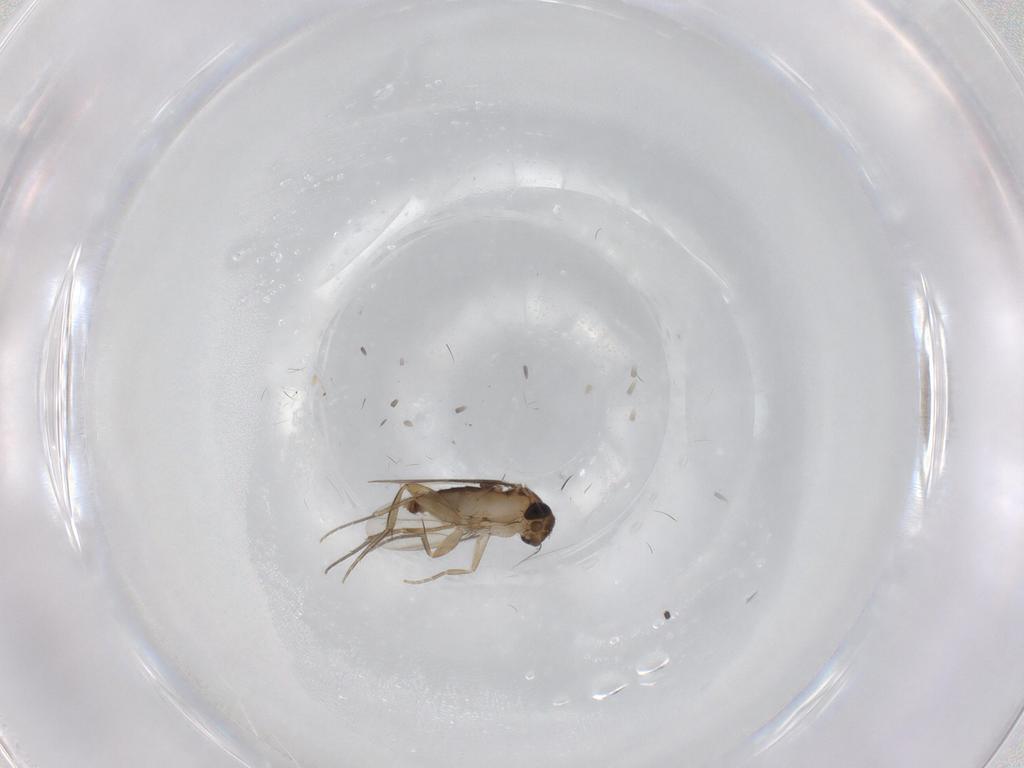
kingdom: Animalia
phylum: Arthropoda
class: Insecta
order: Diptera
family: Phoridae
